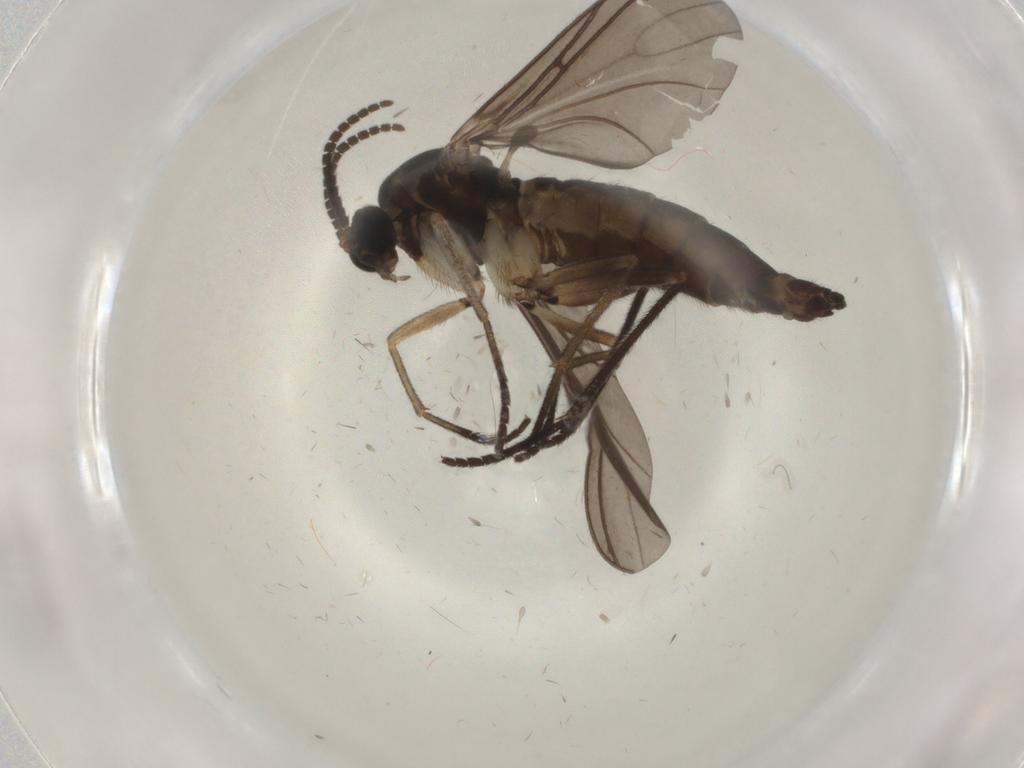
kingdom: Animalia
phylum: Arthropoda
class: Insecta
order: Diptera
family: Sciaridae
